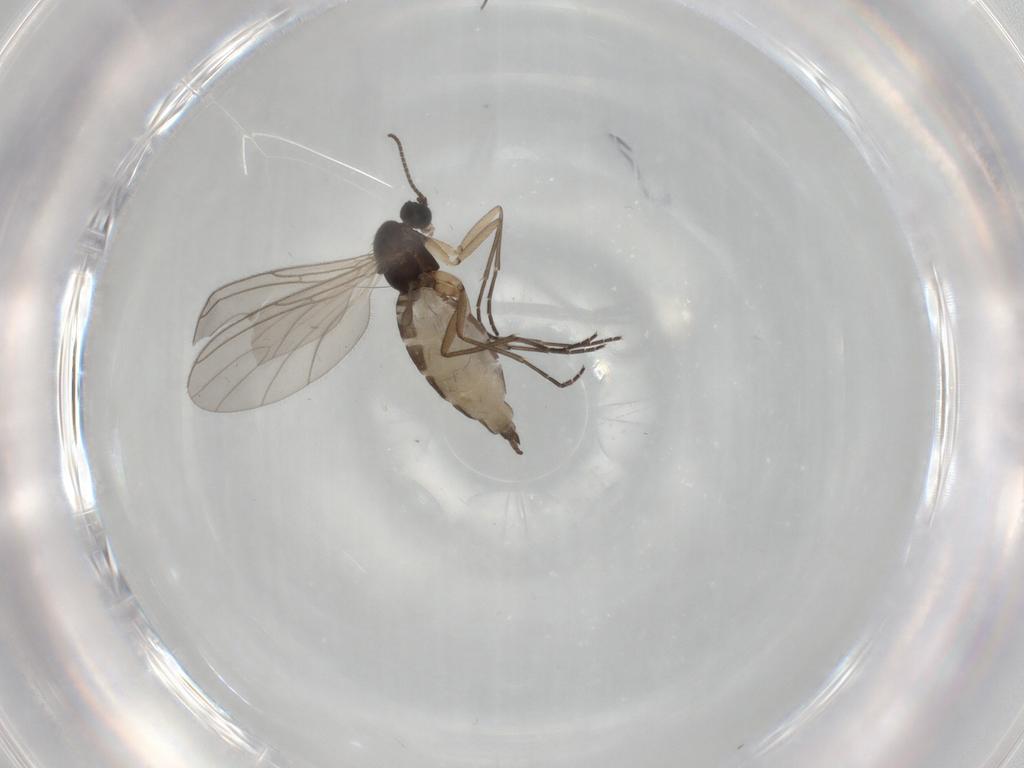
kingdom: Animalia
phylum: Arthropoda
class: Insecta
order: Diptera
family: Sciaridae
